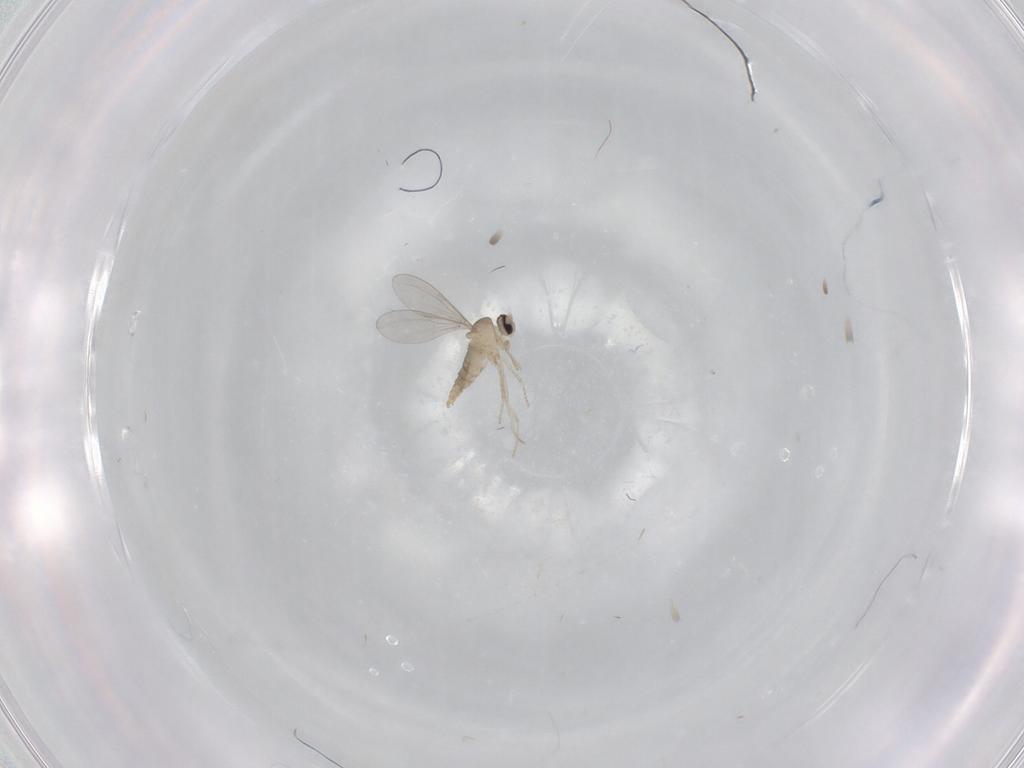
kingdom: Animalia
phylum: Arthropoda
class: Insecta
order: Diptera
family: Cecidomyiidae
